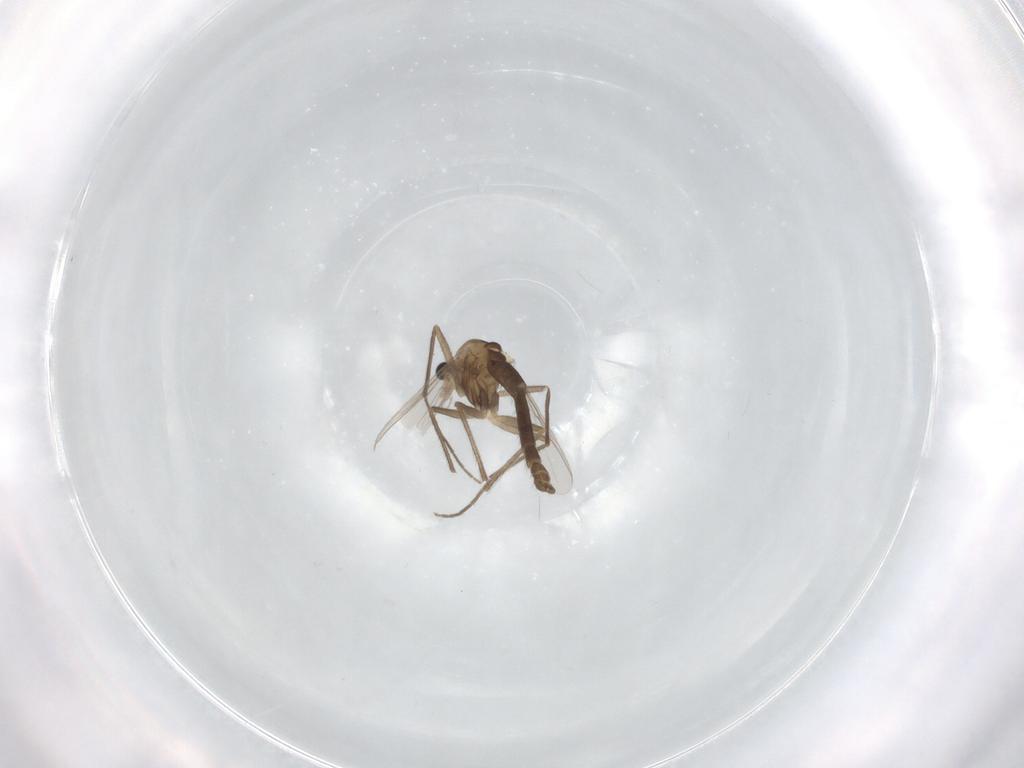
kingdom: Animalia
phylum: Arthropoda
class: Insecta
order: Diptera
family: Chironomidae
